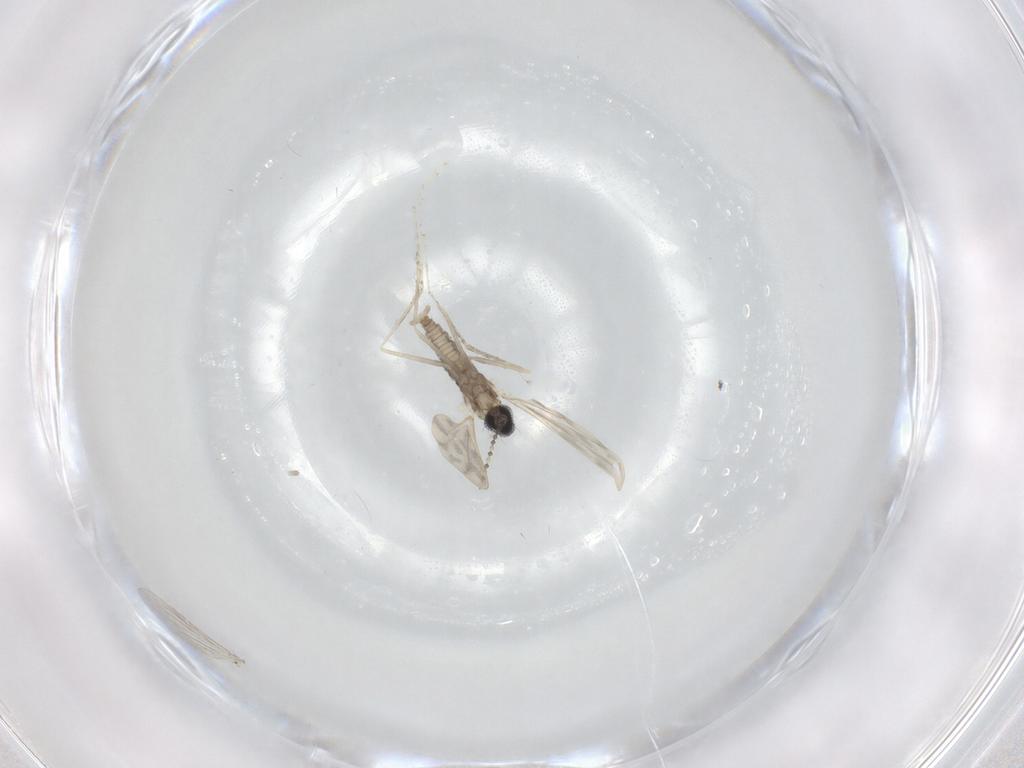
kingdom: Animalia
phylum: Arthropoda
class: Insecta
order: Diptera
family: Cecidomyiidae
